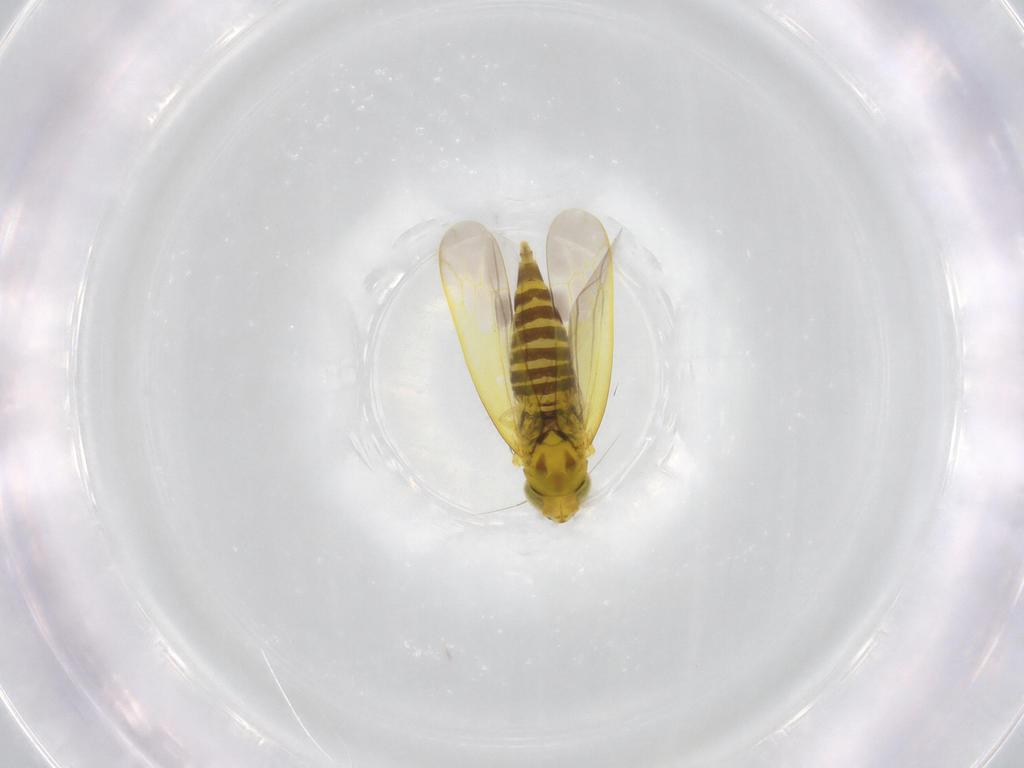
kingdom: Animalia
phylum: Arthropoda
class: Insecta
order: Hemiptera
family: Cicadellidae
